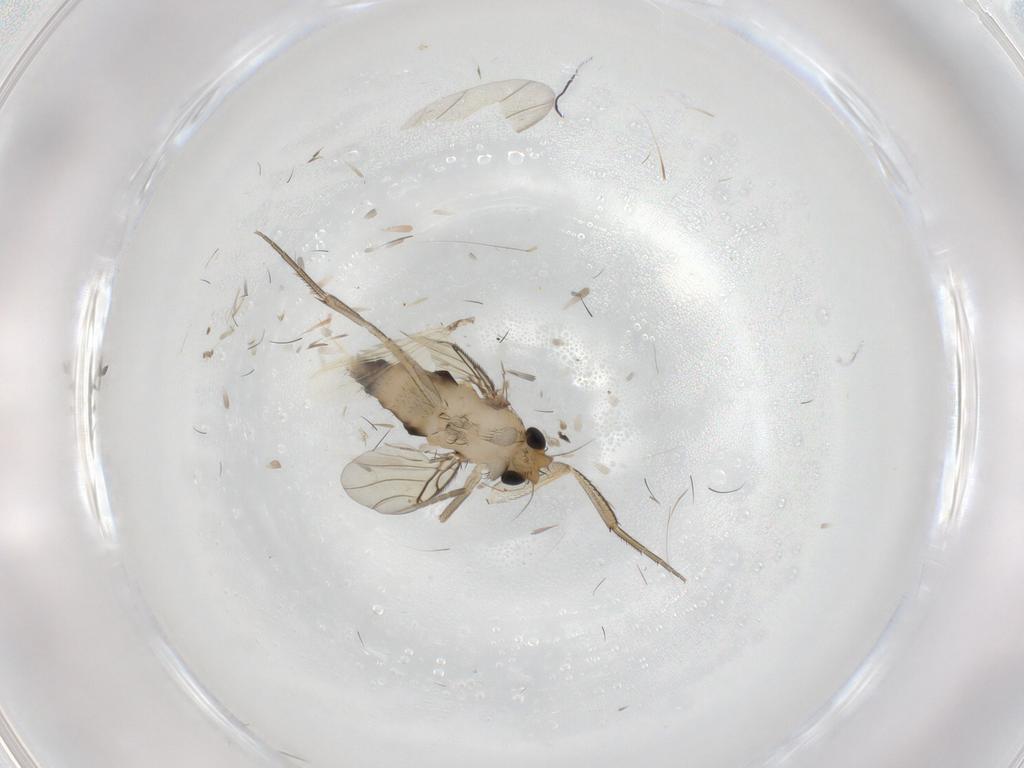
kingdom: Animalia
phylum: Arthropoda
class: Insecta
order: Diptera
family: Phoridae
